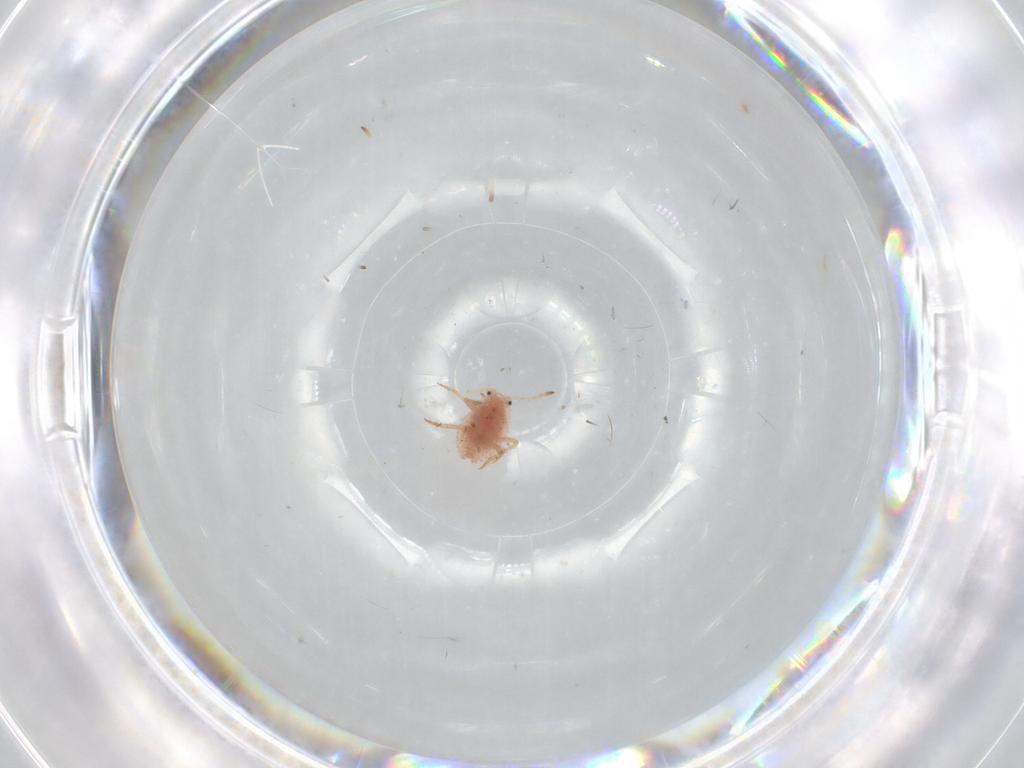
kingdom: Animalia
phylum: Arthropoda
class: Insecta
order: Hemiptera
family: Coccoidea_incertae_sedis
